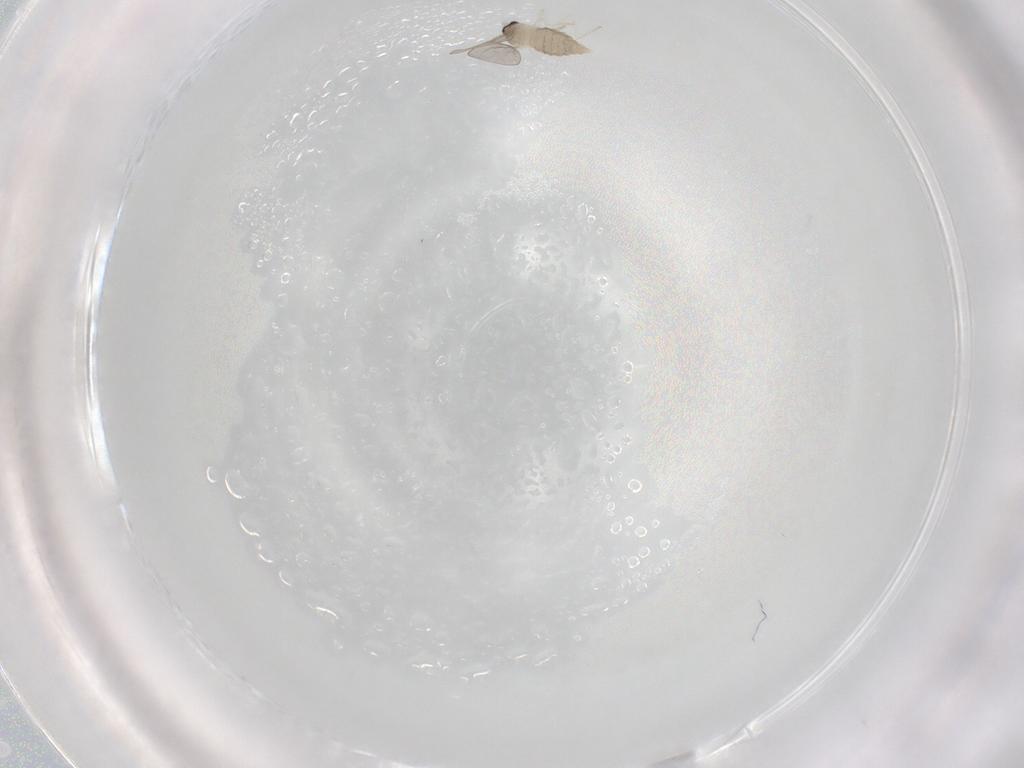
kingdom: Animalia
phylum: Arthropoda
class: Insecta
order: Diptera
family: Cecidomyiidae
